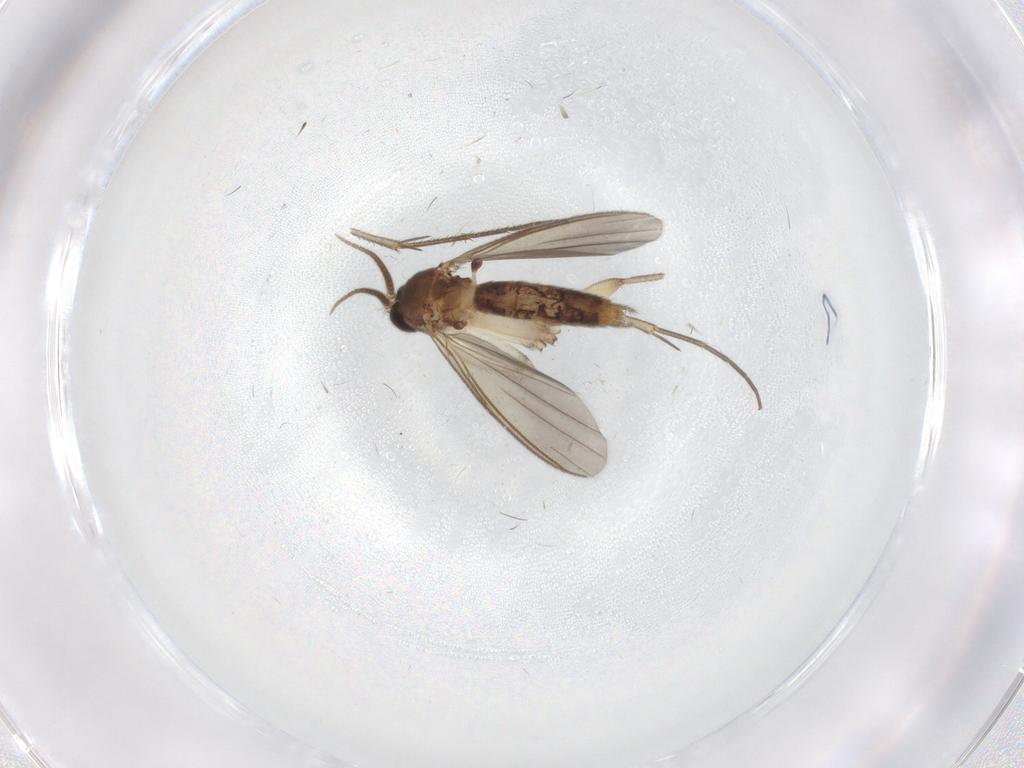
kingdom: Animalia
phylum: Arthropoda
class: Insecta
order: Diptera
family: Mycetophilidae
